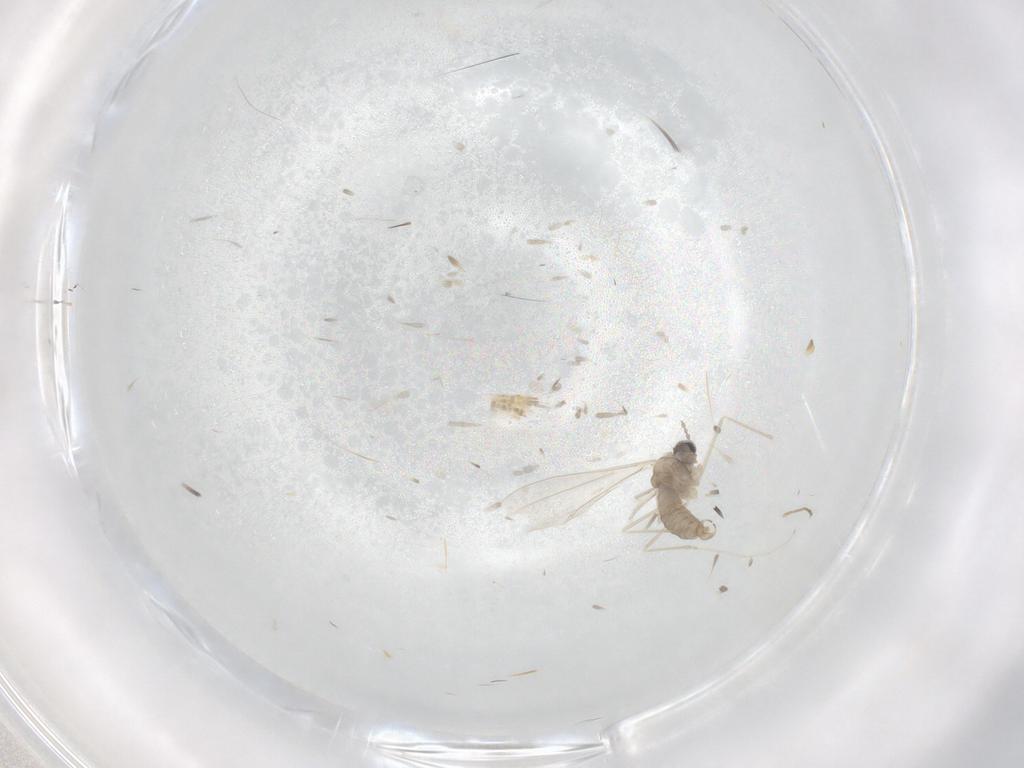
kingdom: Animalia
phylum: Arthropoda
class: Insecta
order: Diptera
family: Cecidomyiidae
